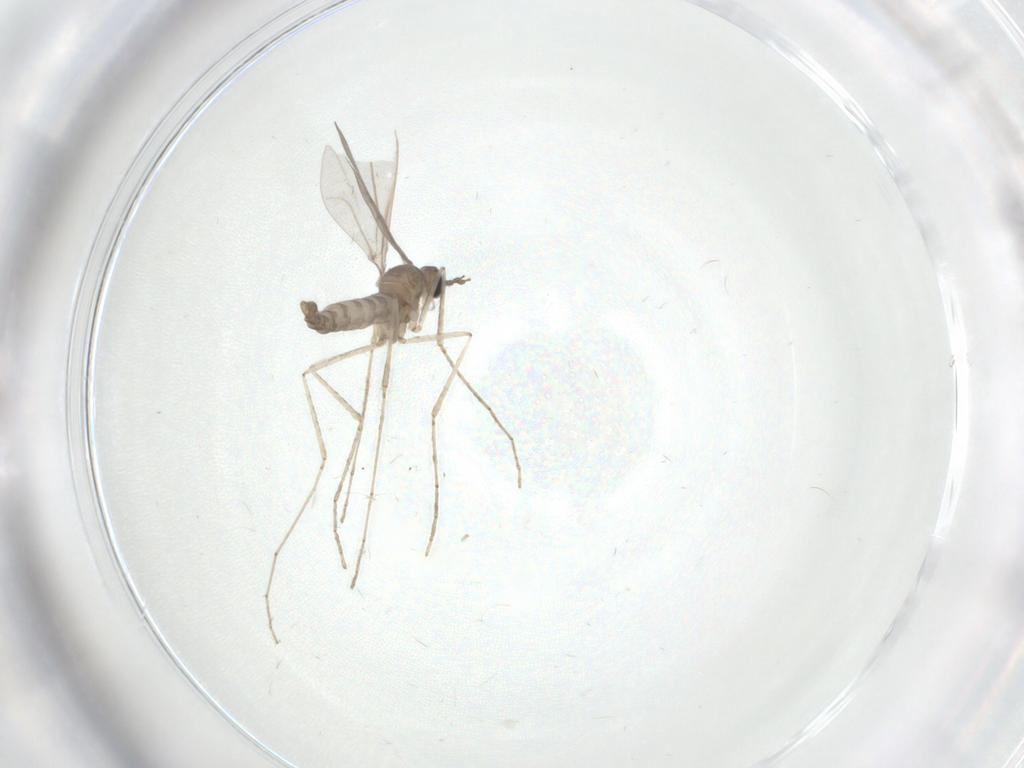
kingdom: Animalia
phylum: Arthropoda
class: Insecta
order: Diptera
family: Cecidomyiidae
